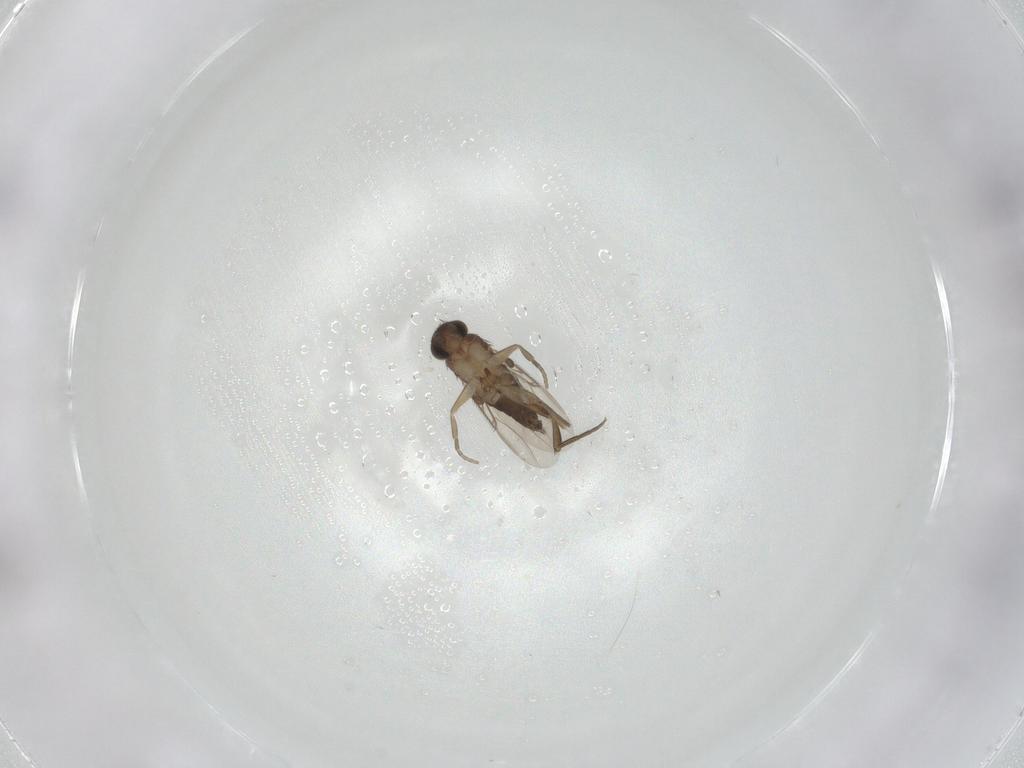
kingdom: Animalia
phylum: Arthropoda
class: Insecta
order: Diptera
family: Phoridae
